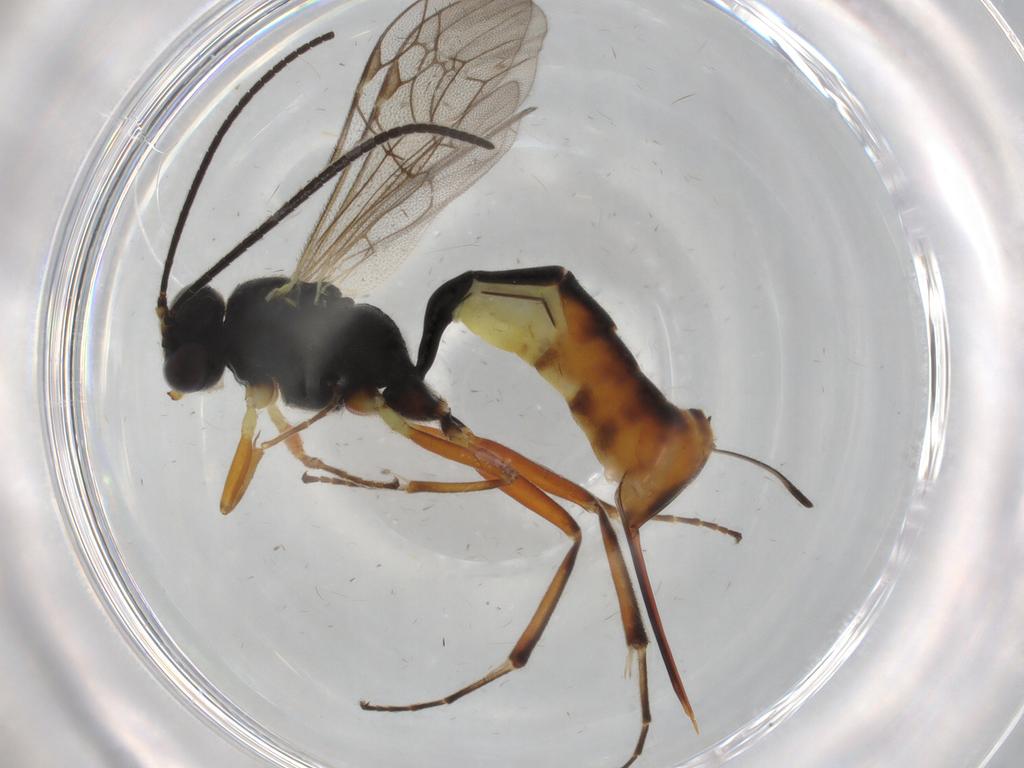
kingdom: Animalia
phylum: Arthropoda
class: Insecta
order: Hymenoptera
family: Ichneumonidae
